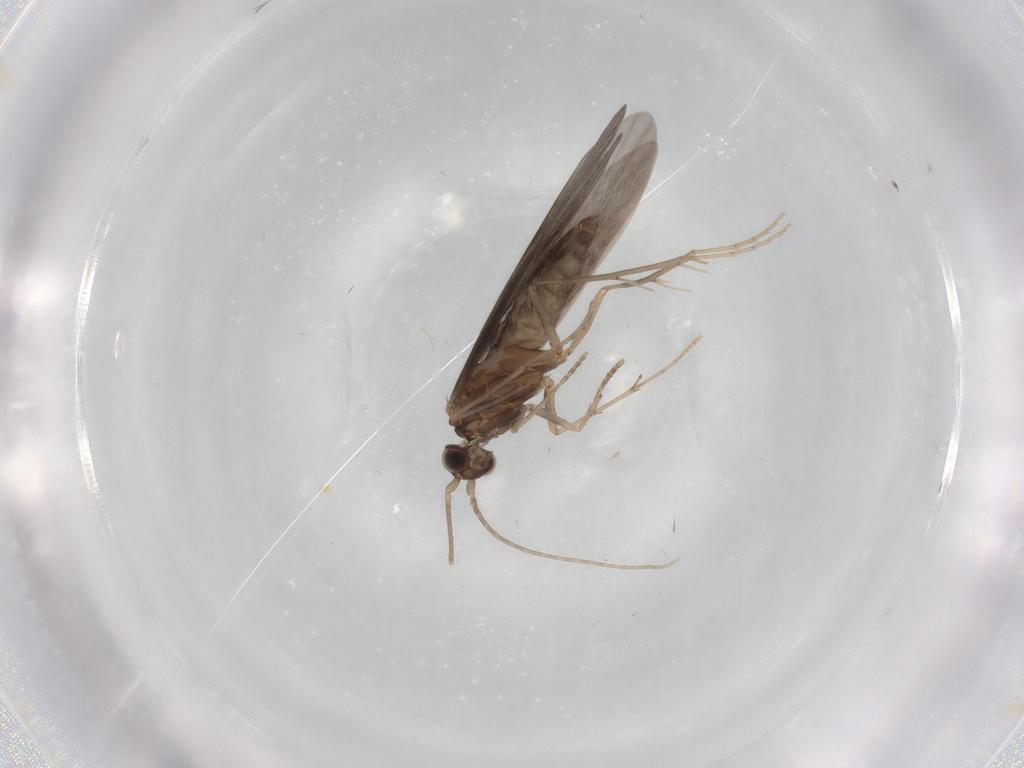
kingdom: Animalia
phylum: Arthropoda
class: Insecta
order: Trichoptera
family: Xiphocentronidae
